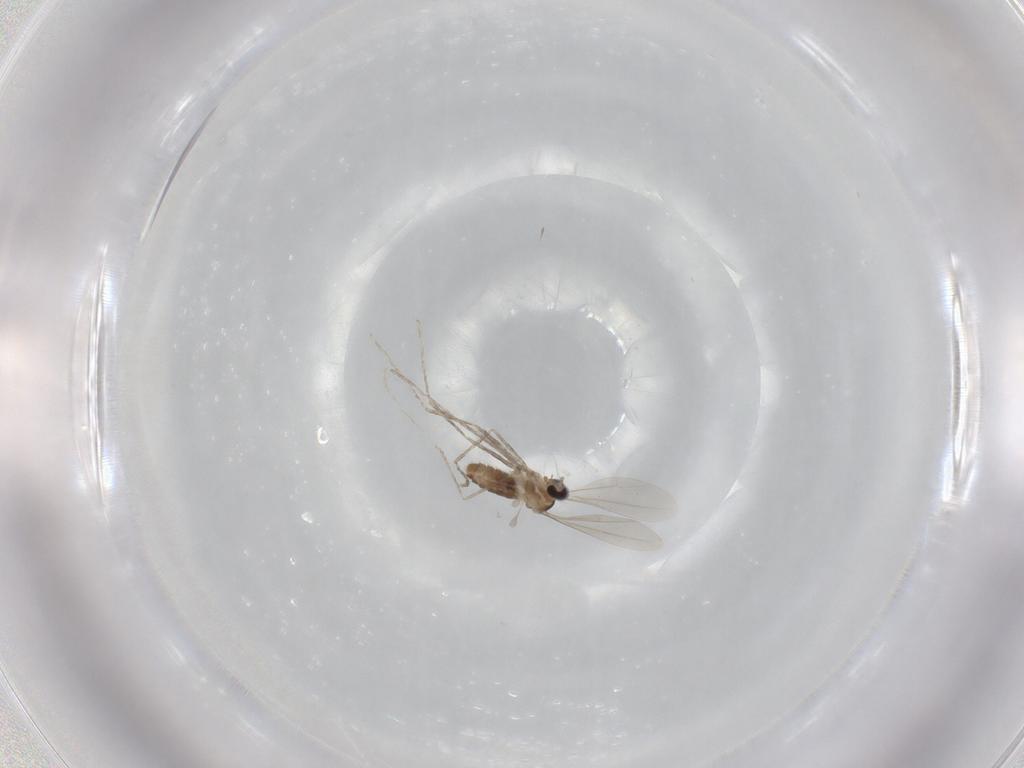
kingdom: Animalia
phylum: Arthropoda
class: Insecta
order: Diptera
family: Cecidomyiidae
